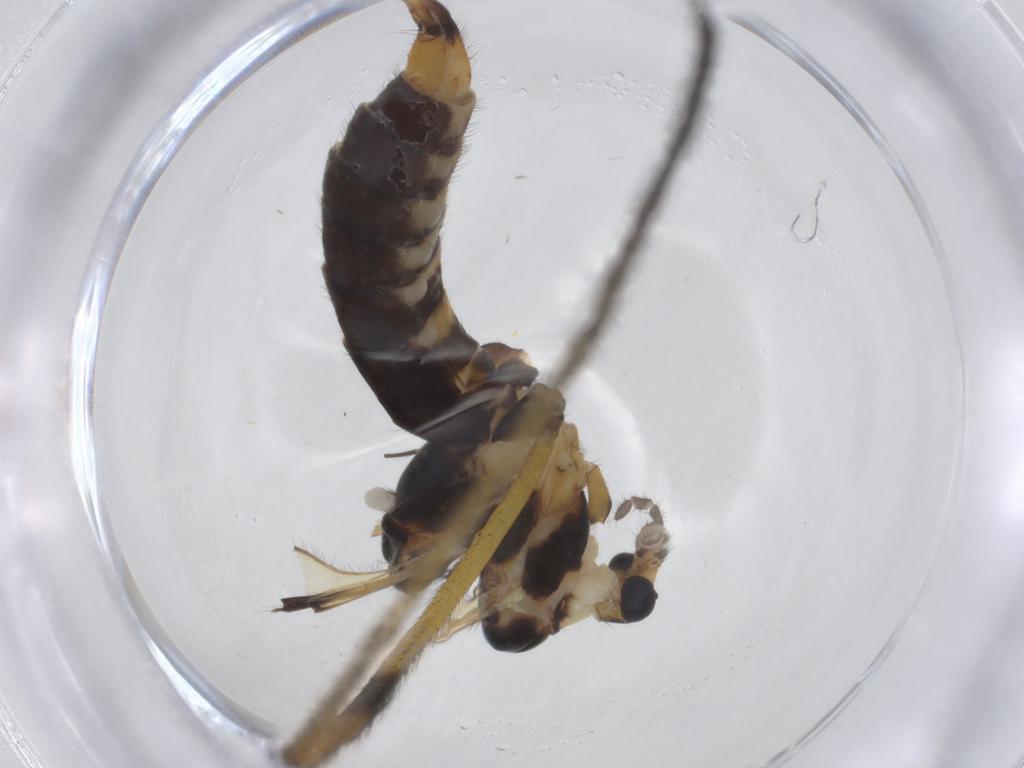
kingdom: Animalia
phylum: Arthropoda
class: Insecta
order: Diptera
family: Limoniidae
